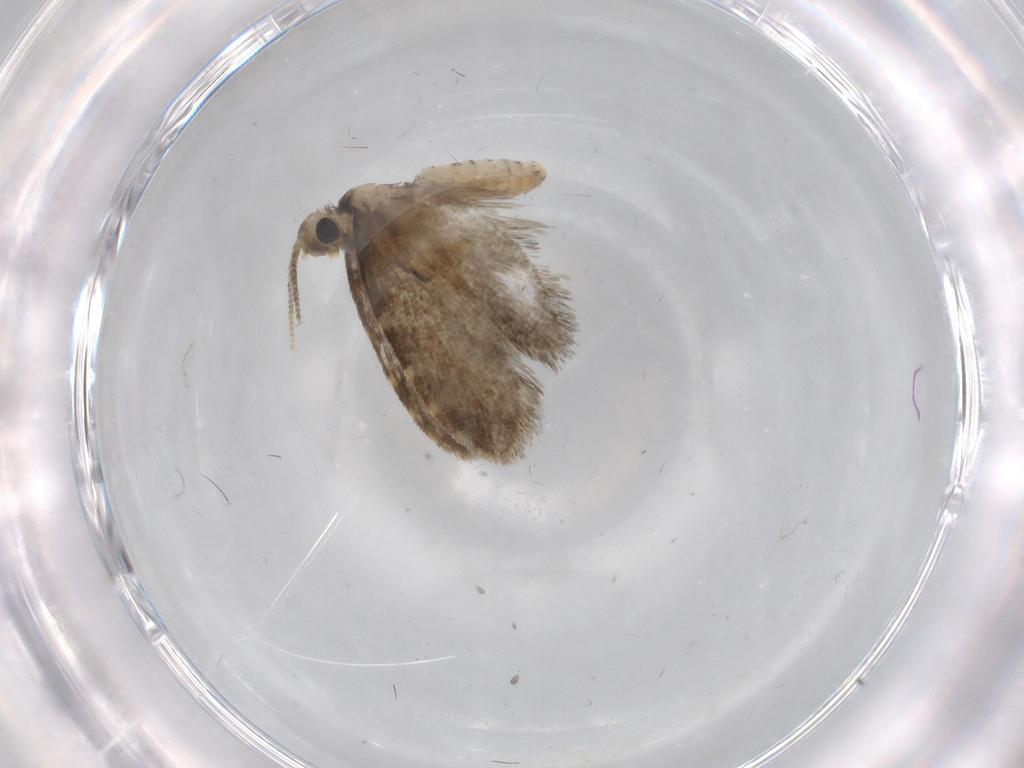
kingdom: Animalia
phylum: Arthropoda
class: Insecta
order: Lepidoptera
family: Psychidae
